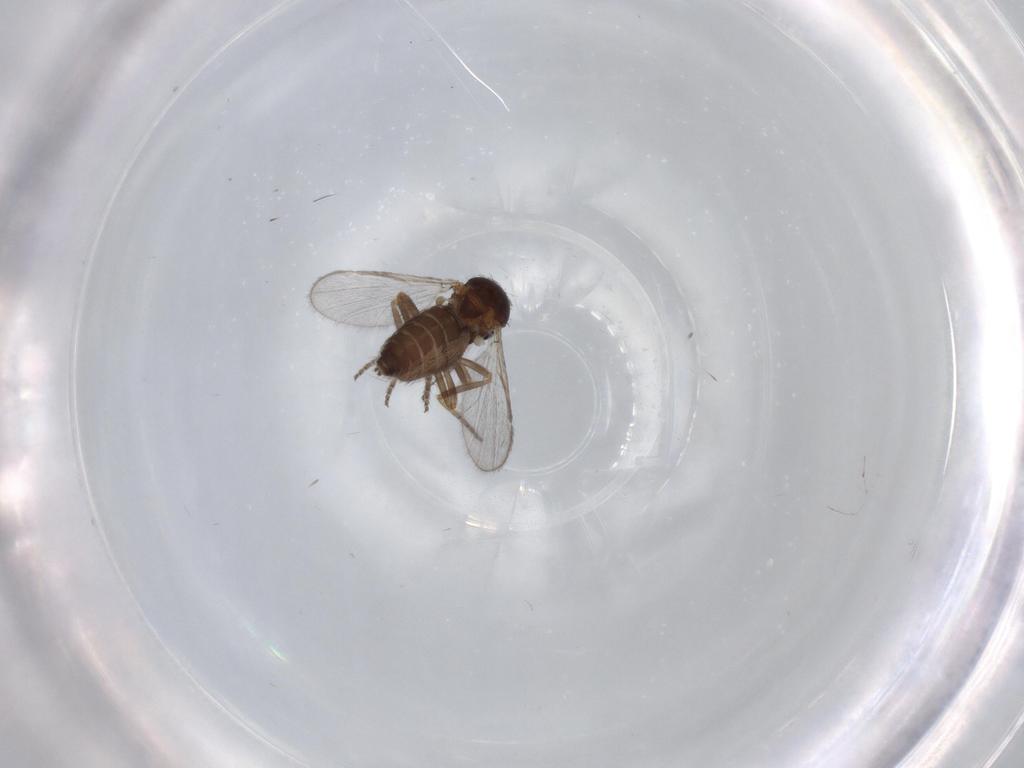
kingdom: Animalia
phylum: Arthropoda
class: Insecta
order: Diptera
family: Ceratopogonidae
